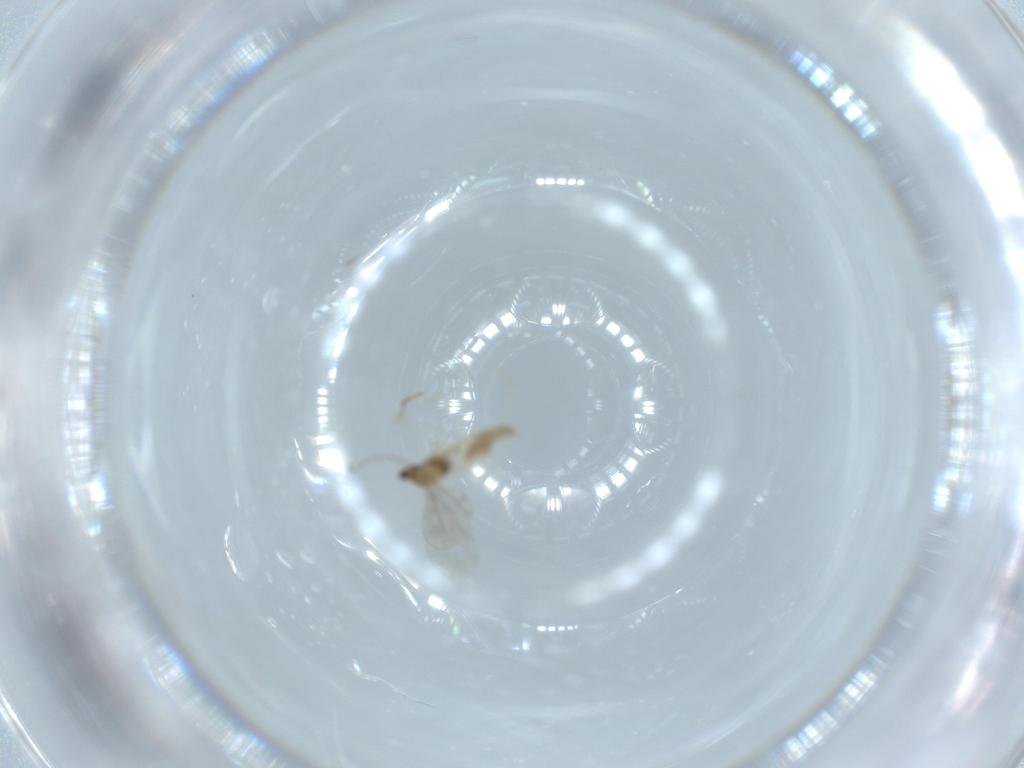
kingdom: Animalia
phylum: Arthropoda
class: Insecta
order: Diptera
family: Cecidomyiidae
